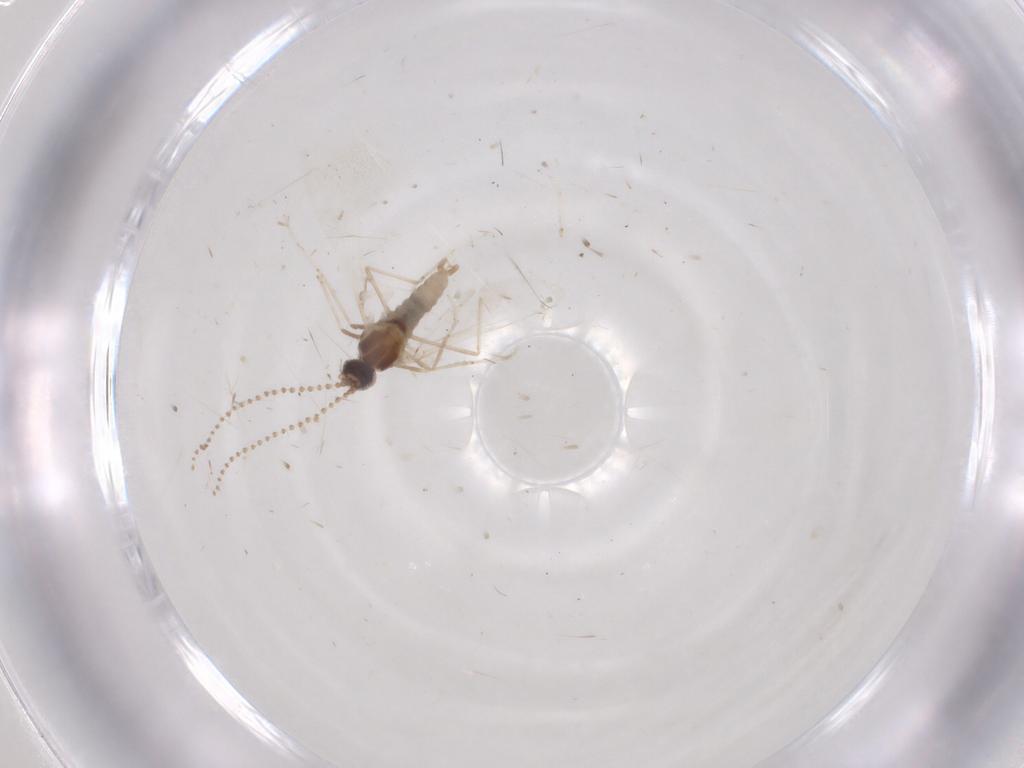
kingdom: Animalia
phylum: Arthropoda
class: Insecta
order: Diptera
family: Cecidomyiidae
